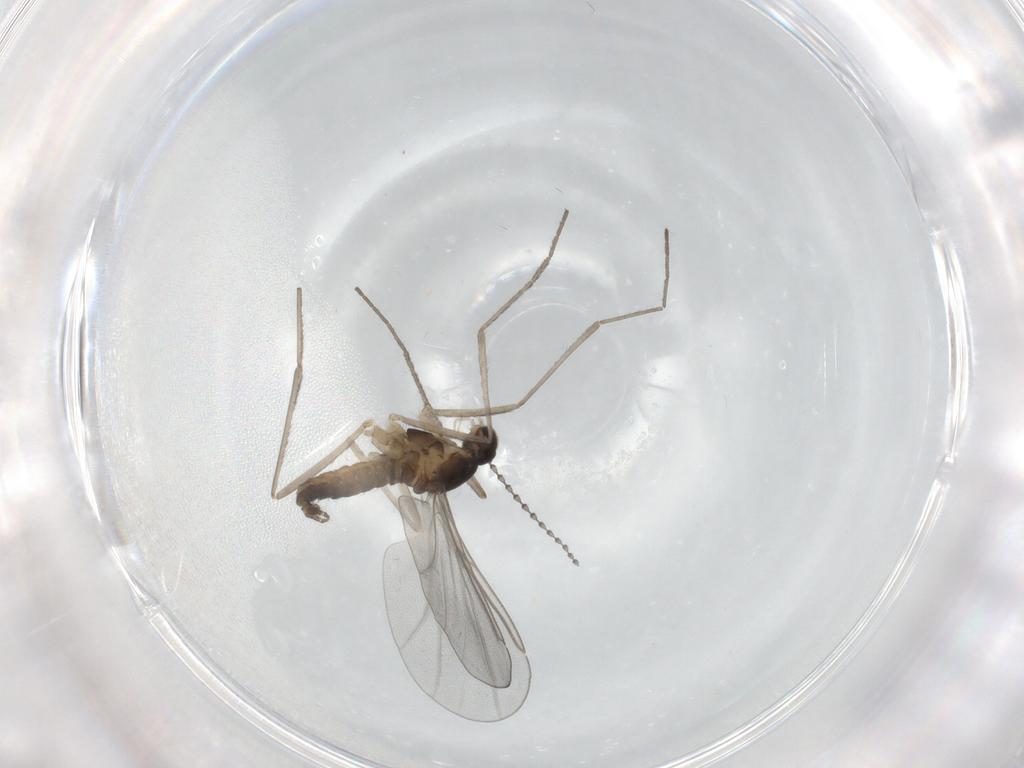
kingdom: Animalia
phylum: Arthropoda
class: Insecta
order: Diptera
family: Cecidomyiidae
